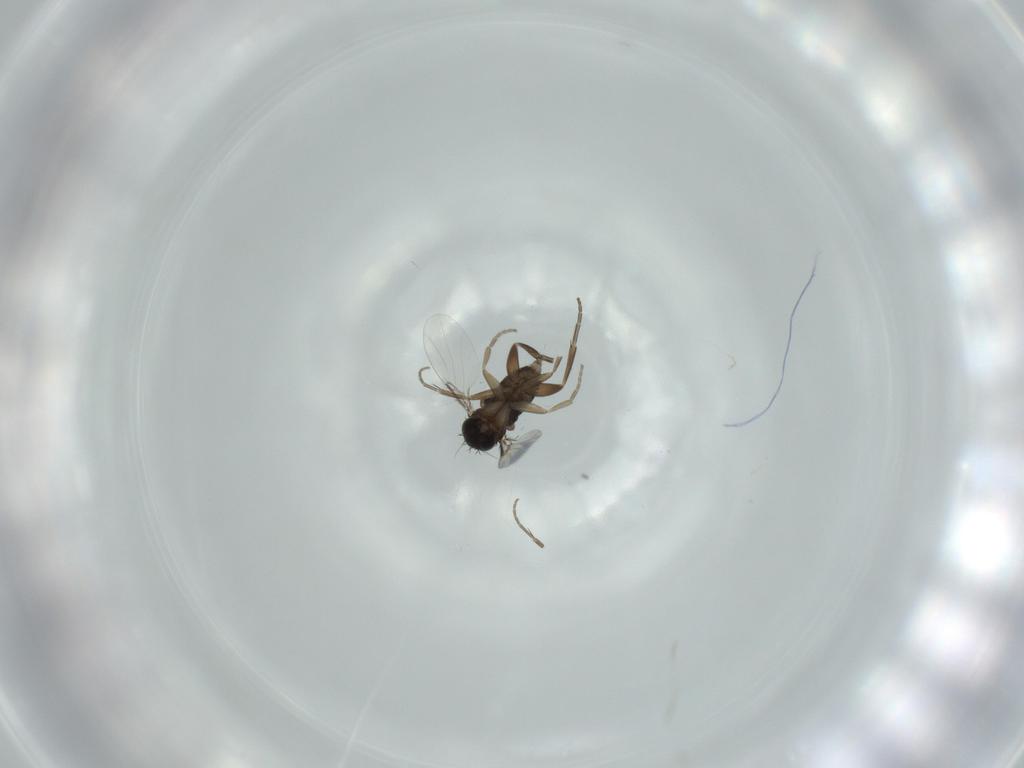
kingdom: Animalia
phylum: Arthropoda
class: Insecta
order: Diptera
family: Phoridae
